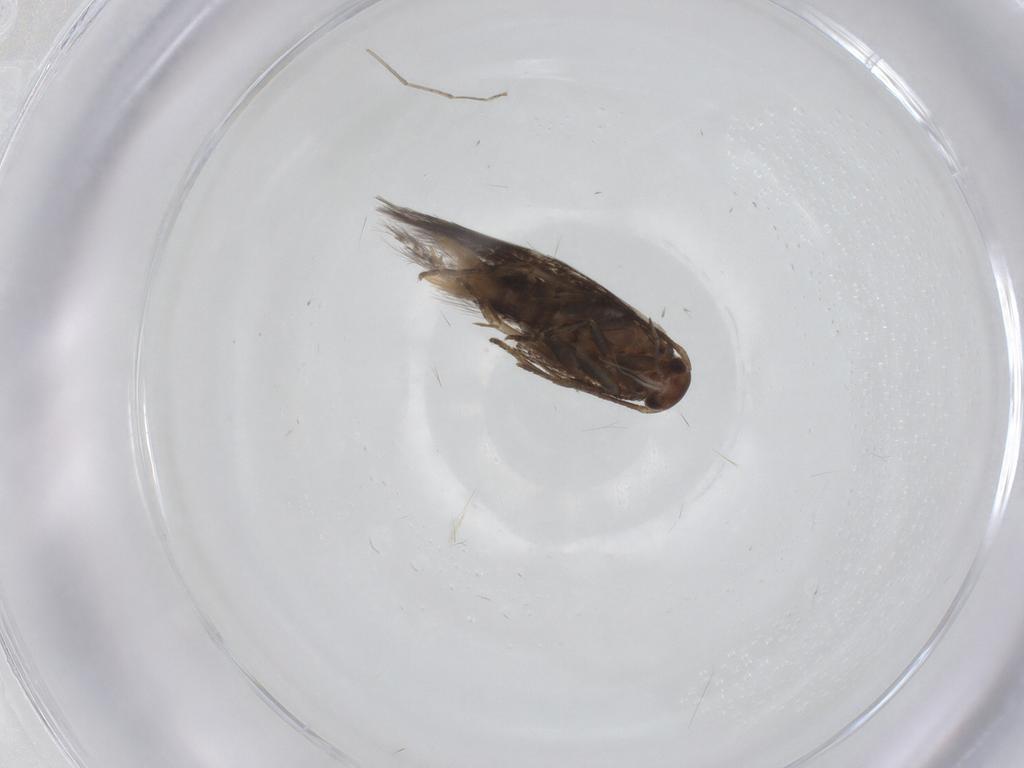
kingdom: Animalia
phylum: Arthropoda
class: Insecta
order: Lepidoptera
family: Elachistidae
